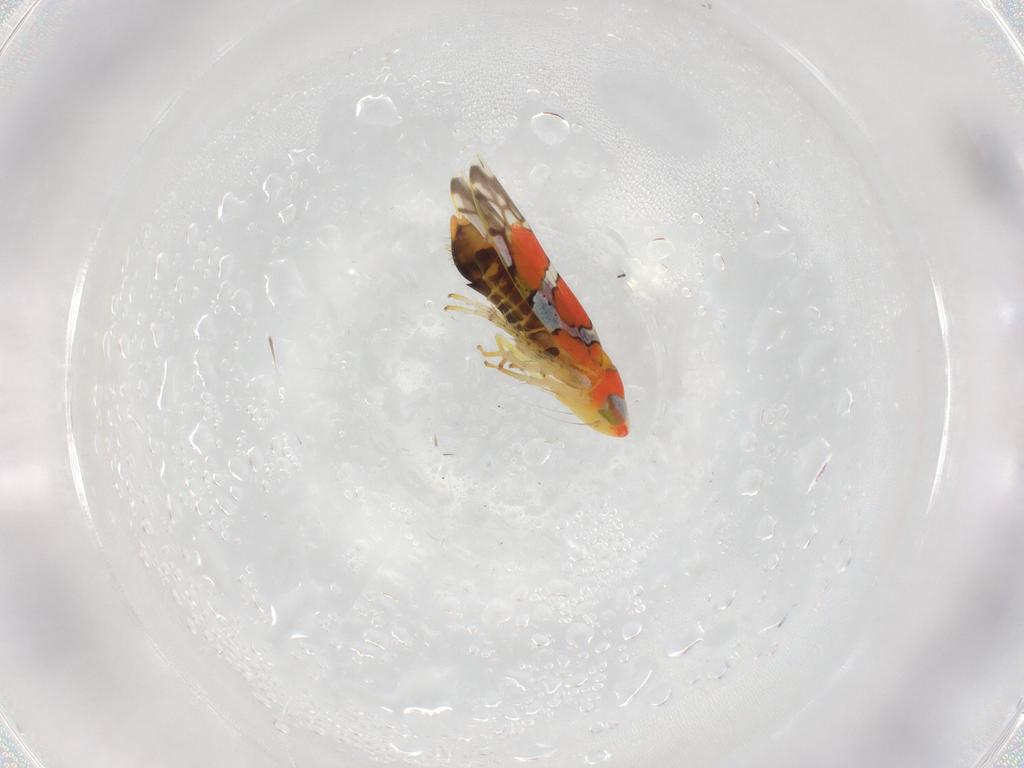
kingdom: Animalia
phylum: Arthropoda
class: Insecta
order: Hemiptera
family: Cicadellidae
